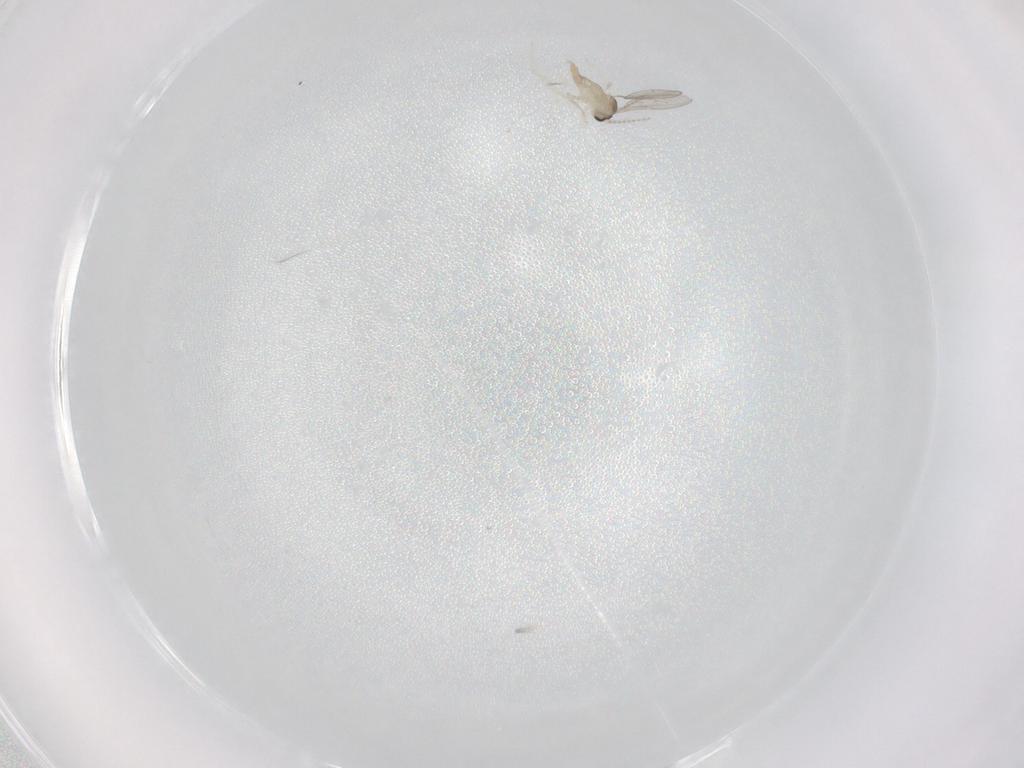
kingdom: Animalia
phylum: Arthropoda
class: Insecta
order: Diptera
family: Cecidomyiidae
